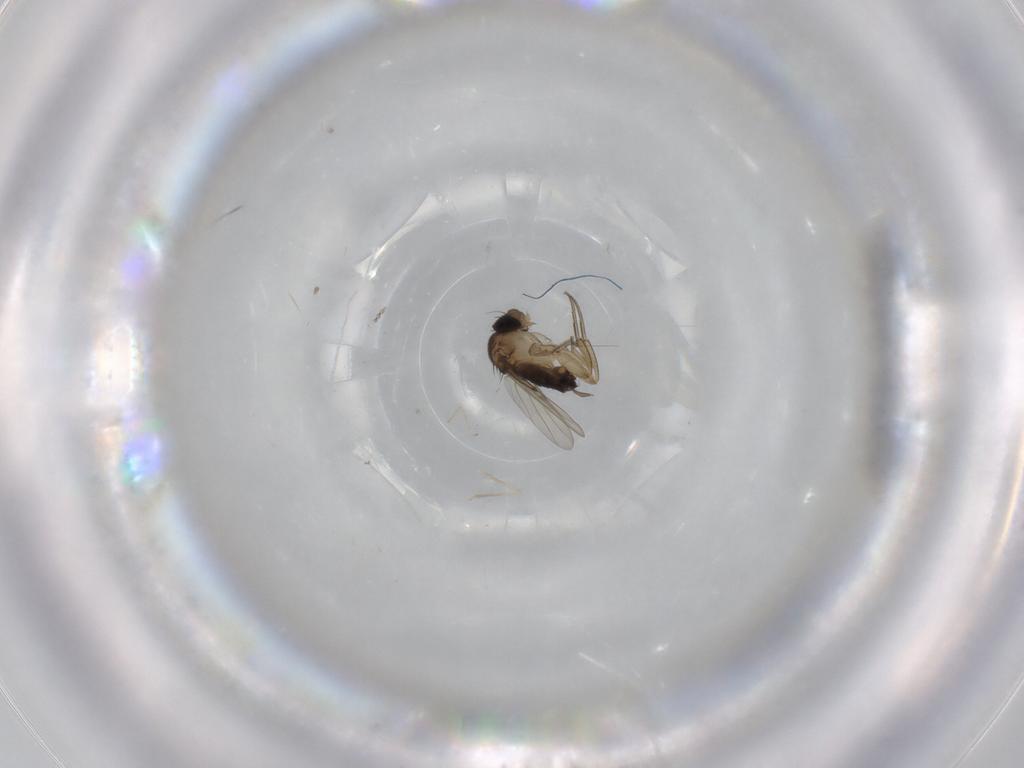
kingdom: Animalia
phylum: Arthropoda
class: Insecta
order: Diptera
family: Cecidomyiidae
